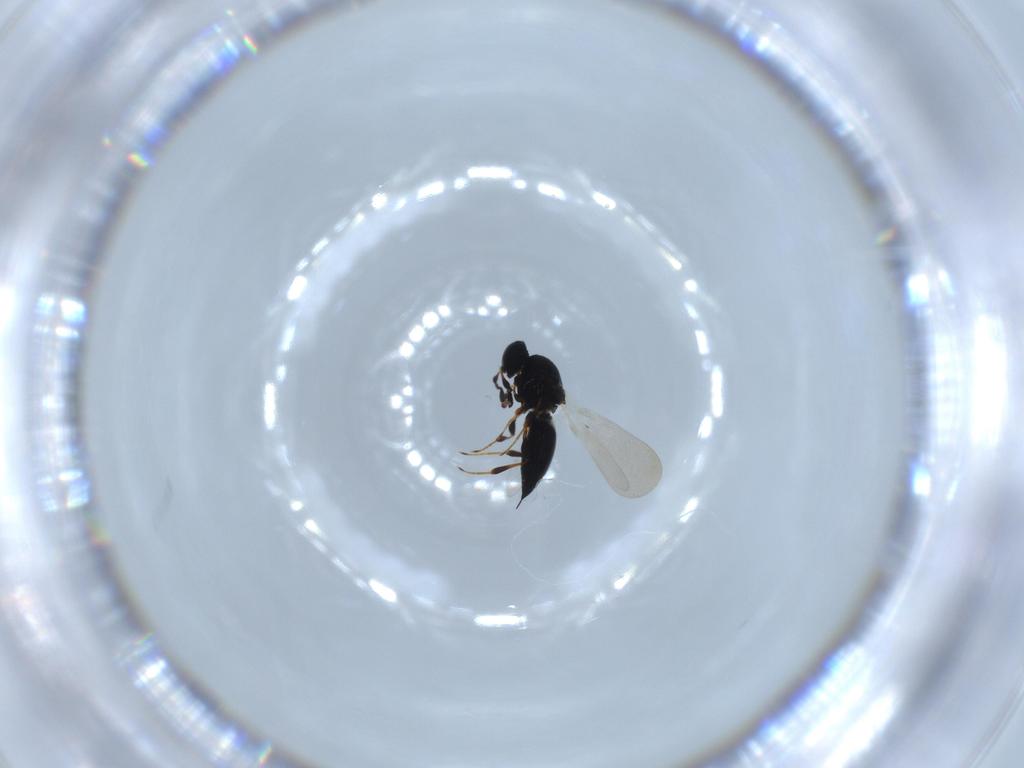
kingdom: Animalia
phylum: Arthropoda
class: Insecta
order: Hymenoptera
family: Platygastridae
